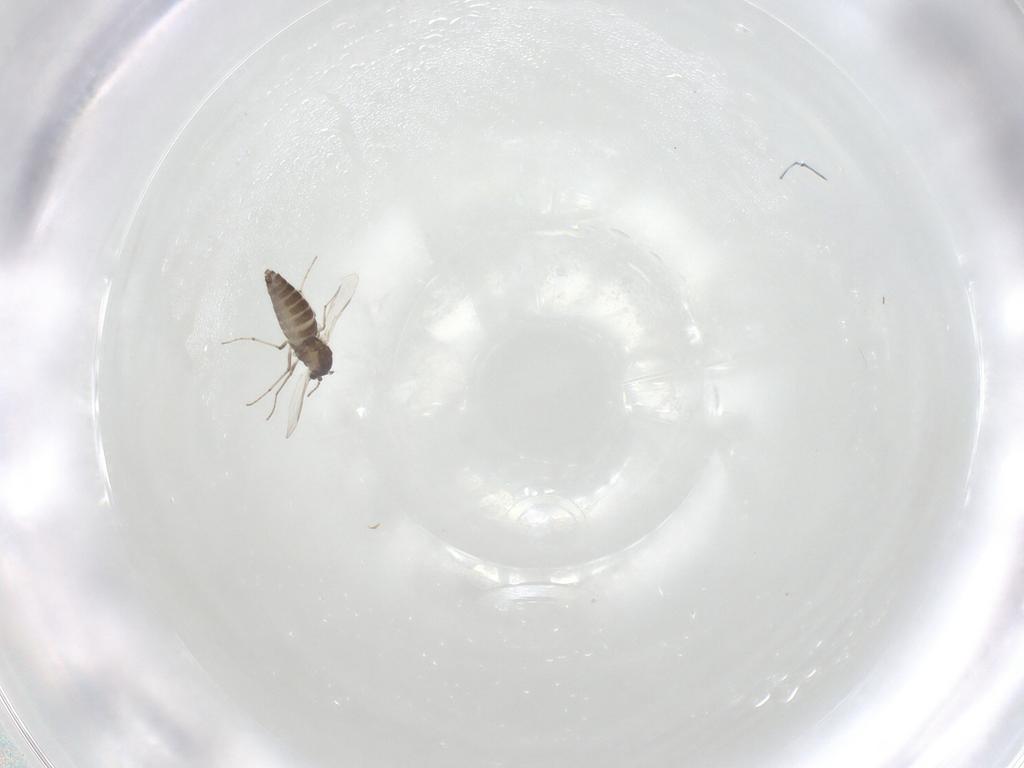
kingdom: Animalia
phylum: Arthropoda
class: Insecta
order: Diptera
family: Chironomidae
